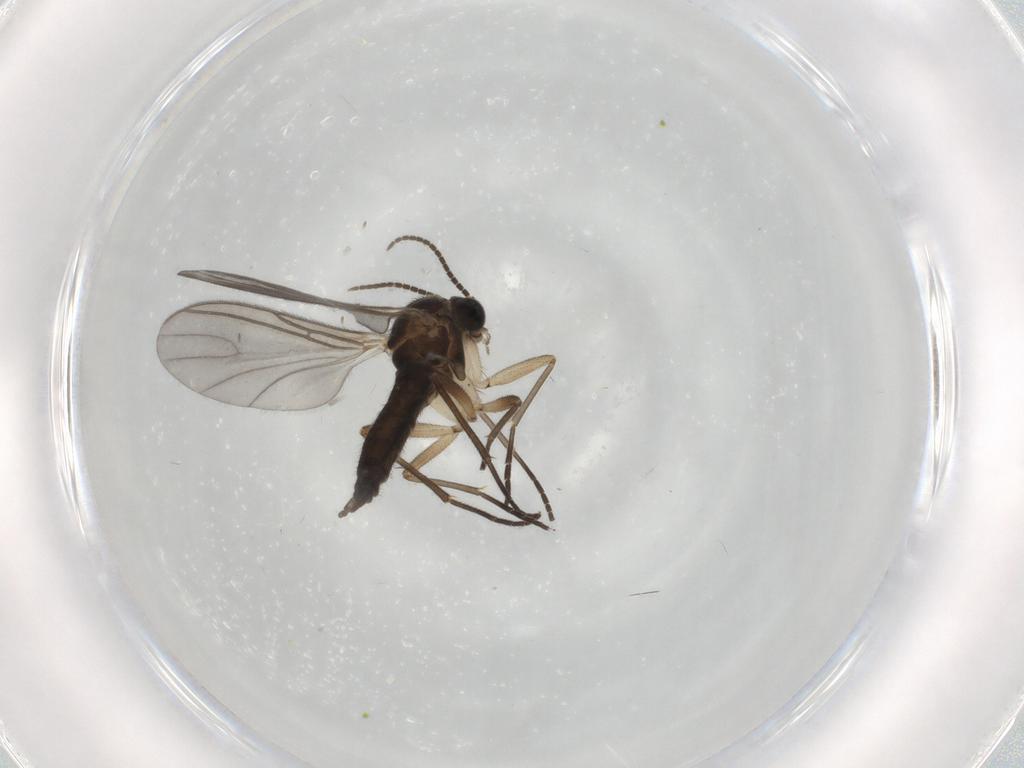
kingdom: Animalia
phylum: Arthropoda
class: Insecta
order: Diptera
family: Sciaridae
